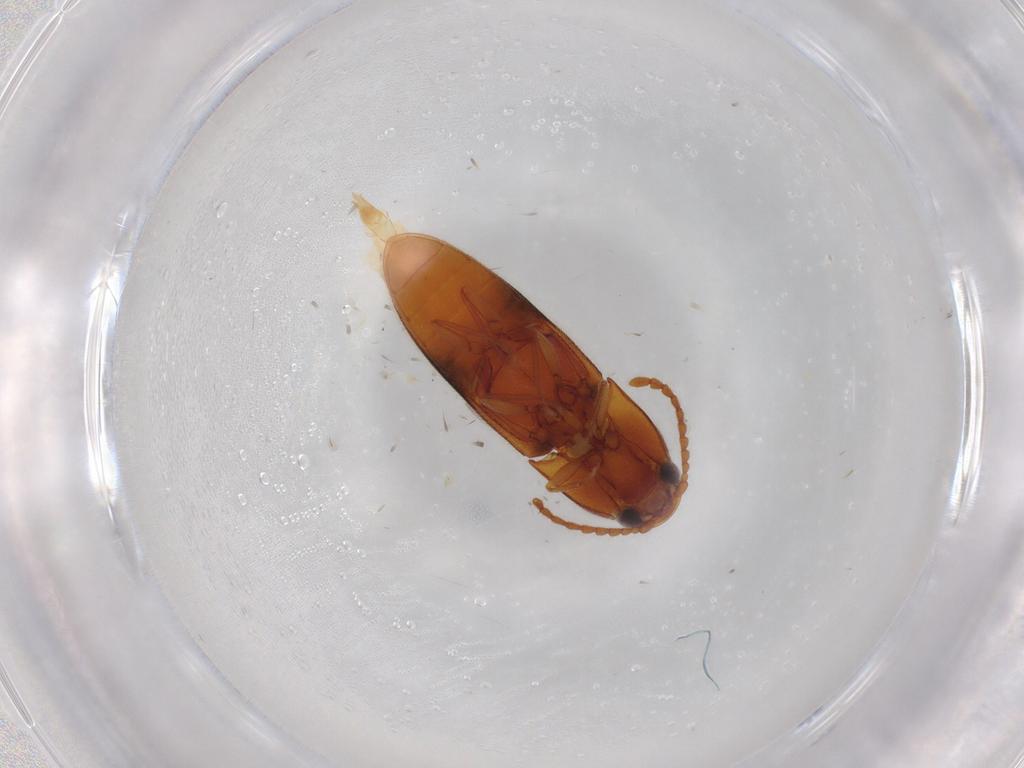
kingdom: Animalia
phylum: Arthropoda
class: Insecta
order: Coleoptera
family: Elateridae
